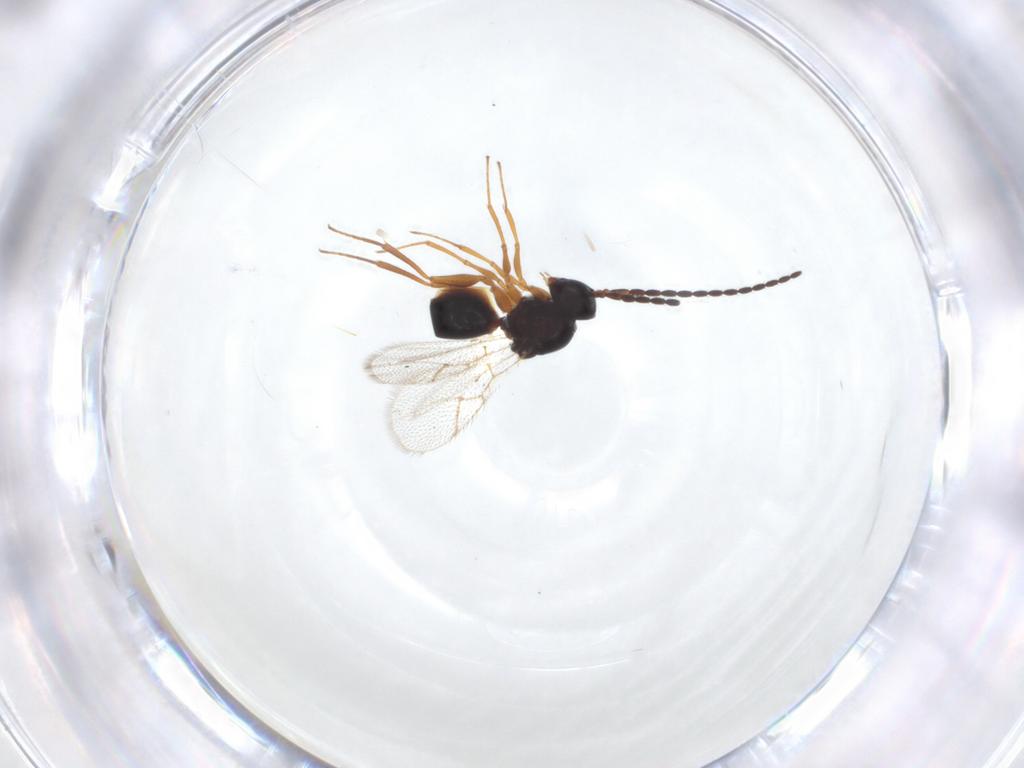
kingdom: Animalia
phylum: Arthropoda
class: Insecta
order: Hymenoptera
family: Figitidae
